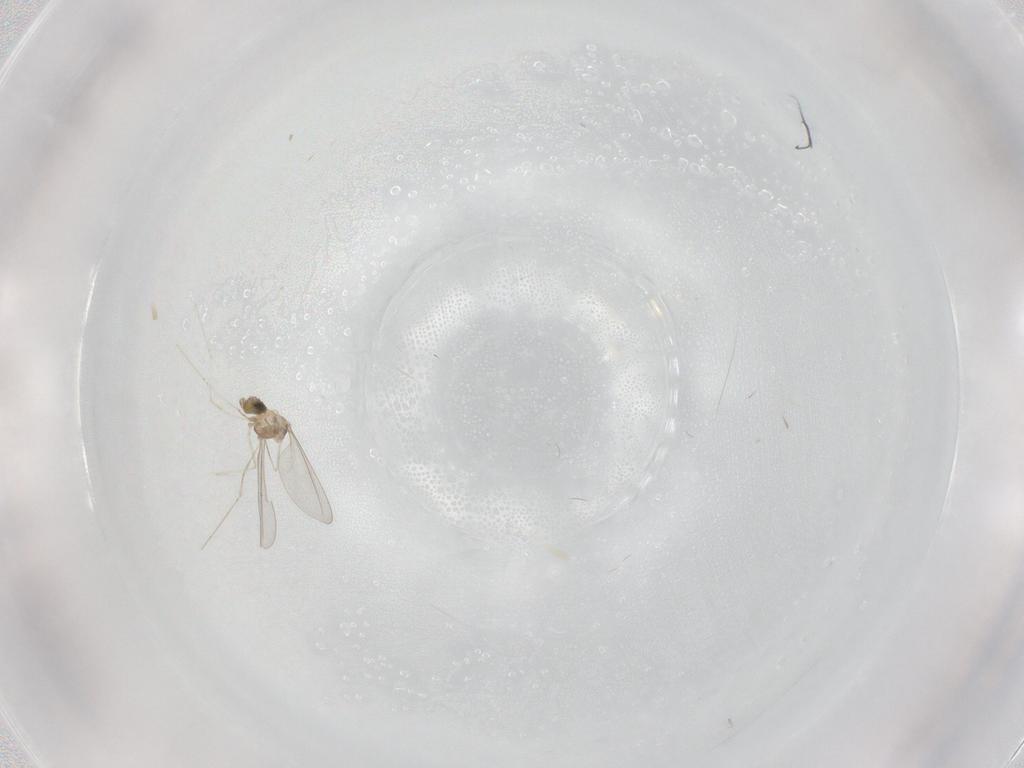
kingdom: Animalia
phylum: Arthropoda
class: Insecta
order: Diptera
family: Cecidomyiidae
